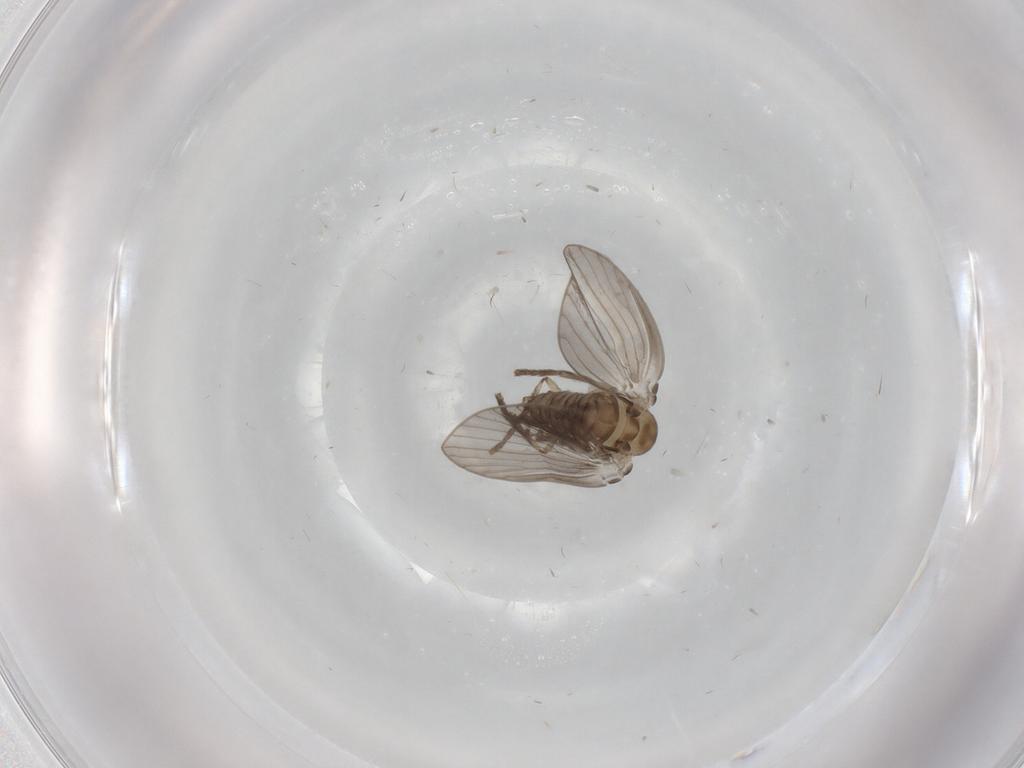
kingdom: Animalia
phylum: Arthropoda
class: Insecta
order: Diptera
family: Psychodidae
